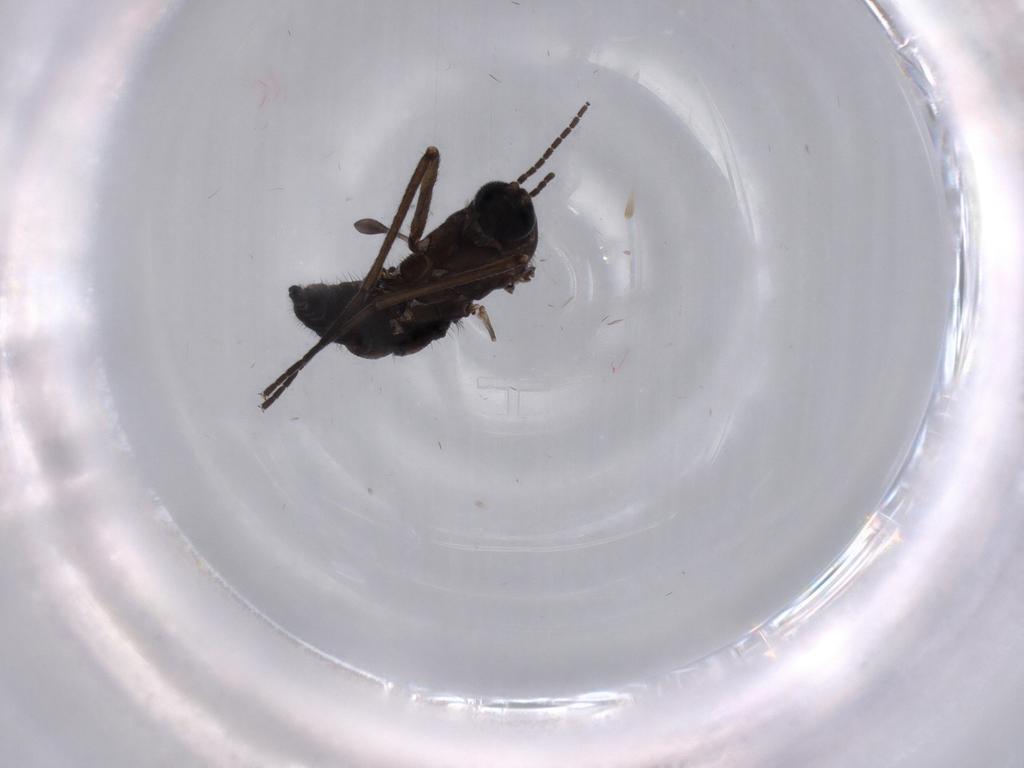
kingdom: Animalia
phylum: Arthropoda
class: Insecta
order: Diptera
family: Sciaridae
